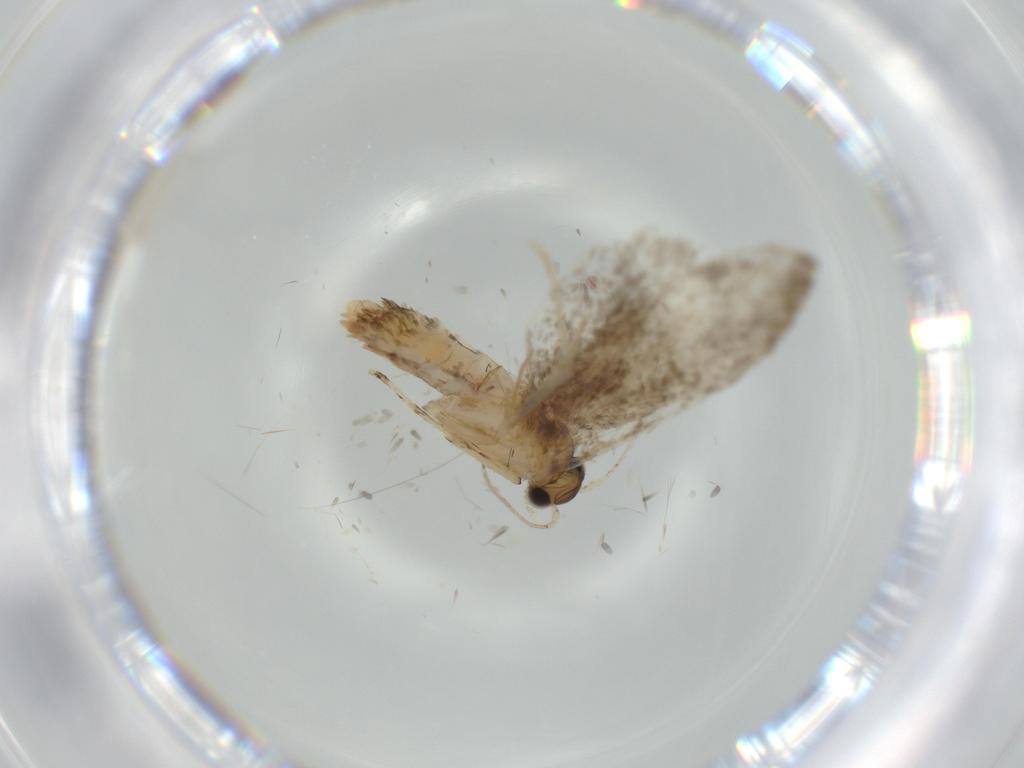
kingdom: Animalia
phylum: Arthropoda
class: Insecta
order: Lepidoptera
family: Tineidae
